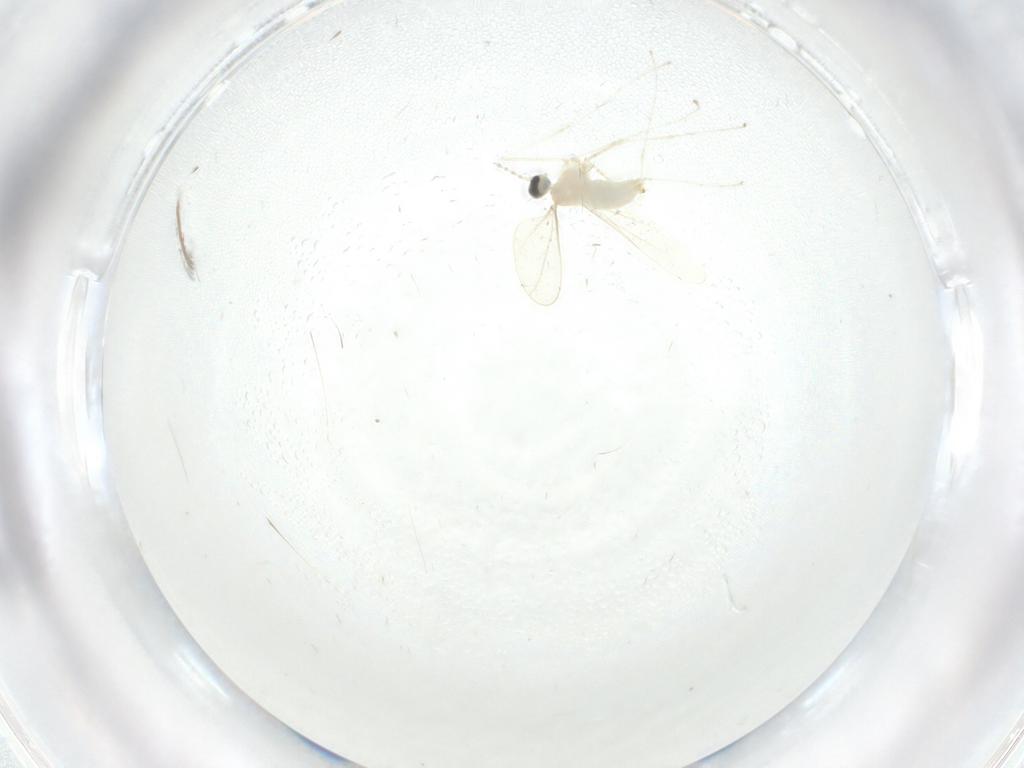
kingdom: Animalia
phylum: Arthropoda
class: Insecta
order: Diptera
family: Cecidomyiidae
